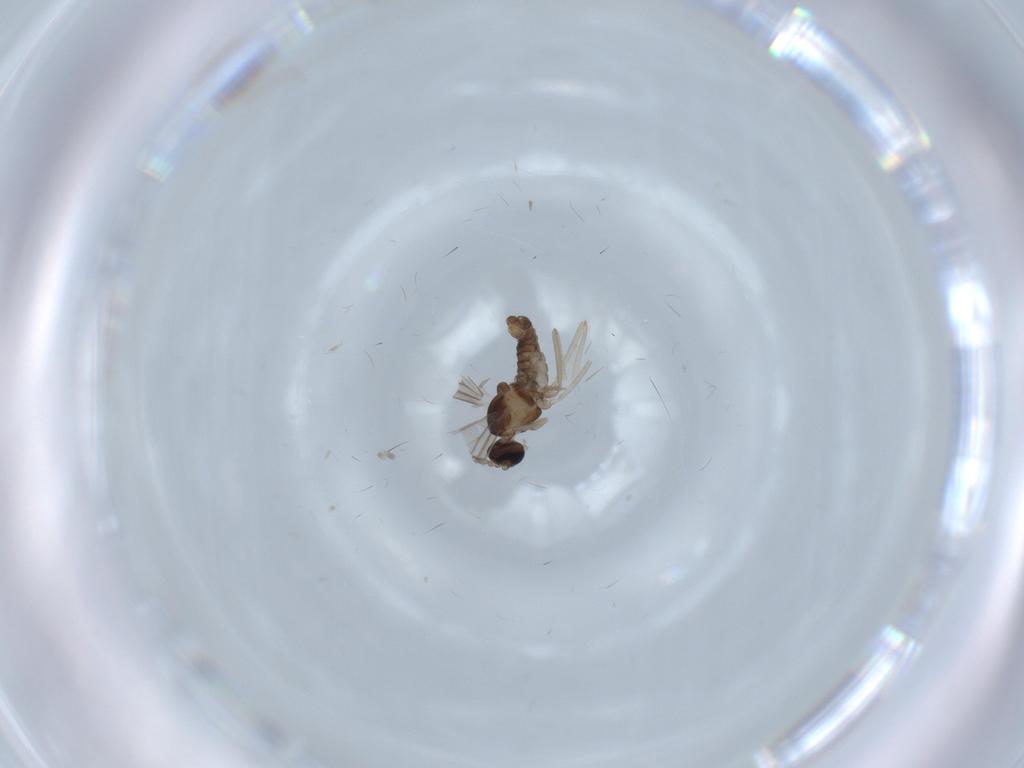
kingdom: Animalia
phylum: Arthropoda
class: Insecta
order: Diptera
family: Cecidomyiidae
